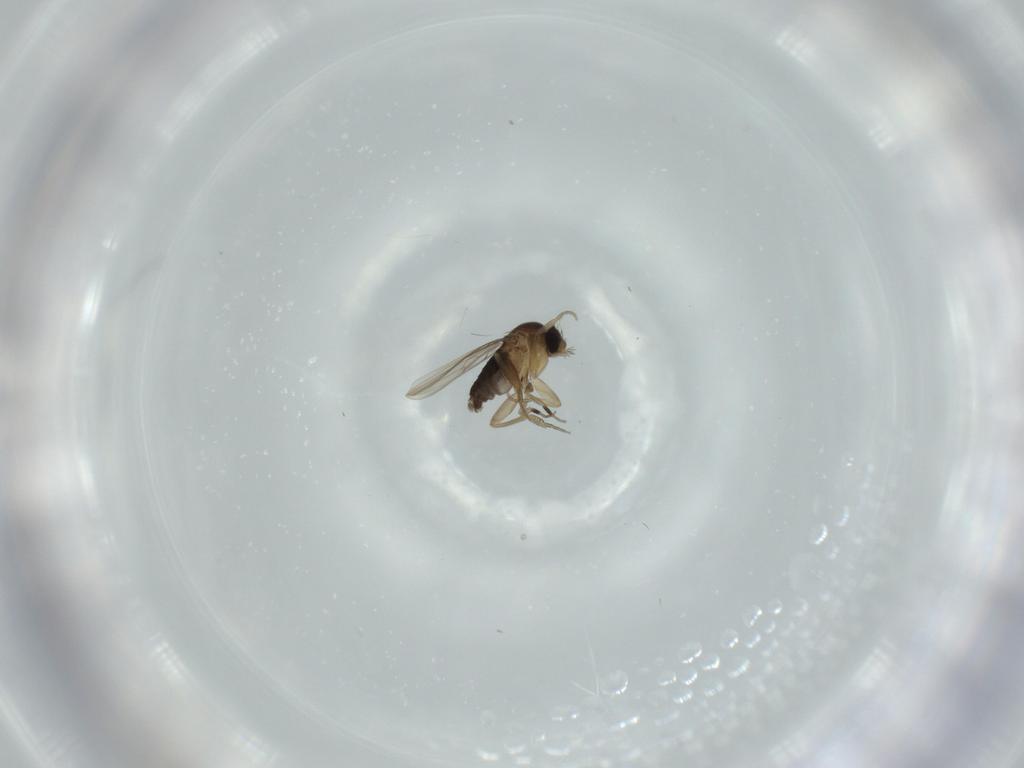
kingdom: Animalia
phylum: Arthropoda
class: Insecta
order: Diptera
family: Phoridae
